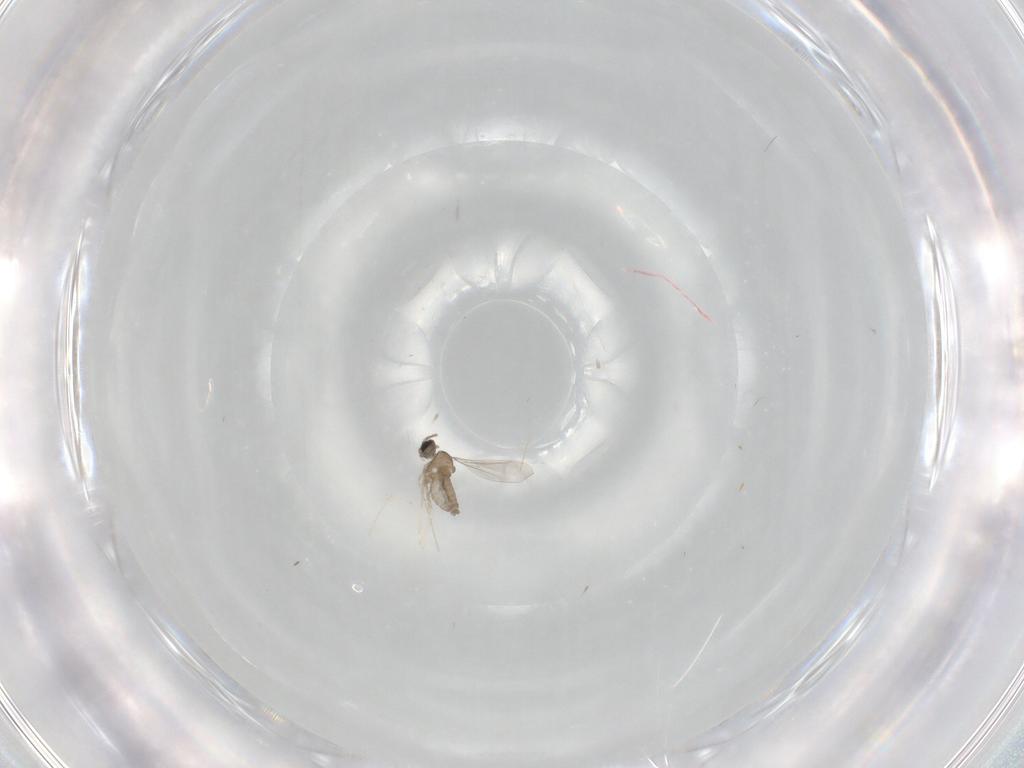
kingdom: Animalia
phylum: Arthropoda
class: Insecta
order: Diptera
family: Cecidomyiidae
